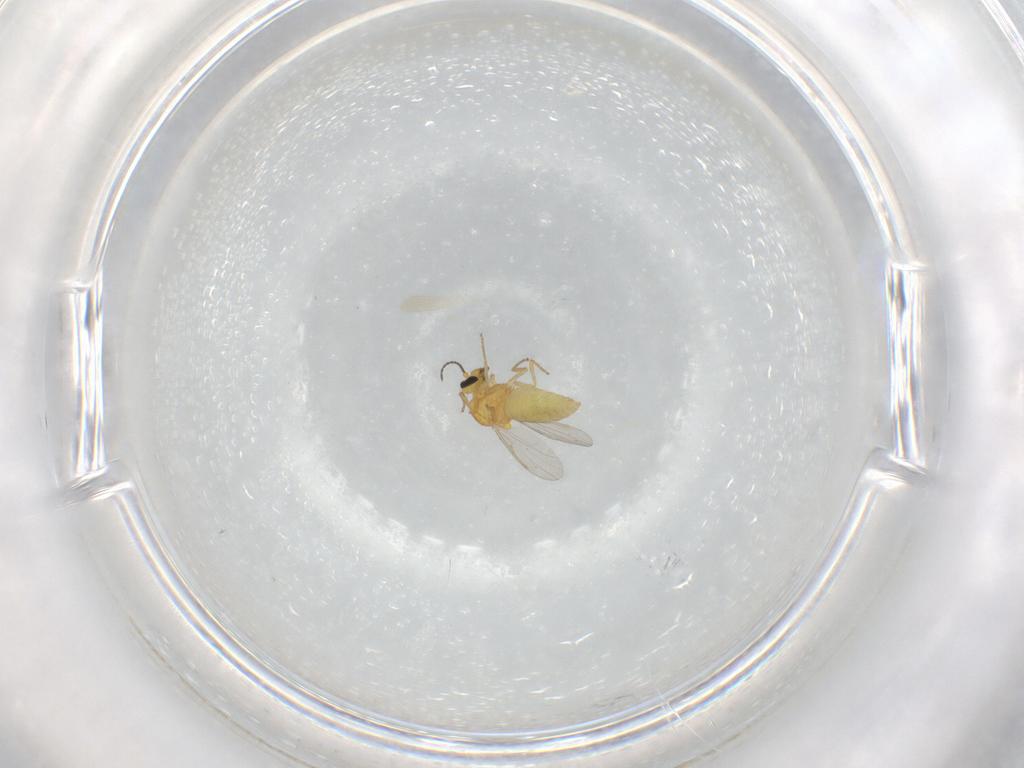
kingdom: Animalia
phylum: Arthropoda
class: Insecta
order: Diptera
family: Ceratopogonidae
